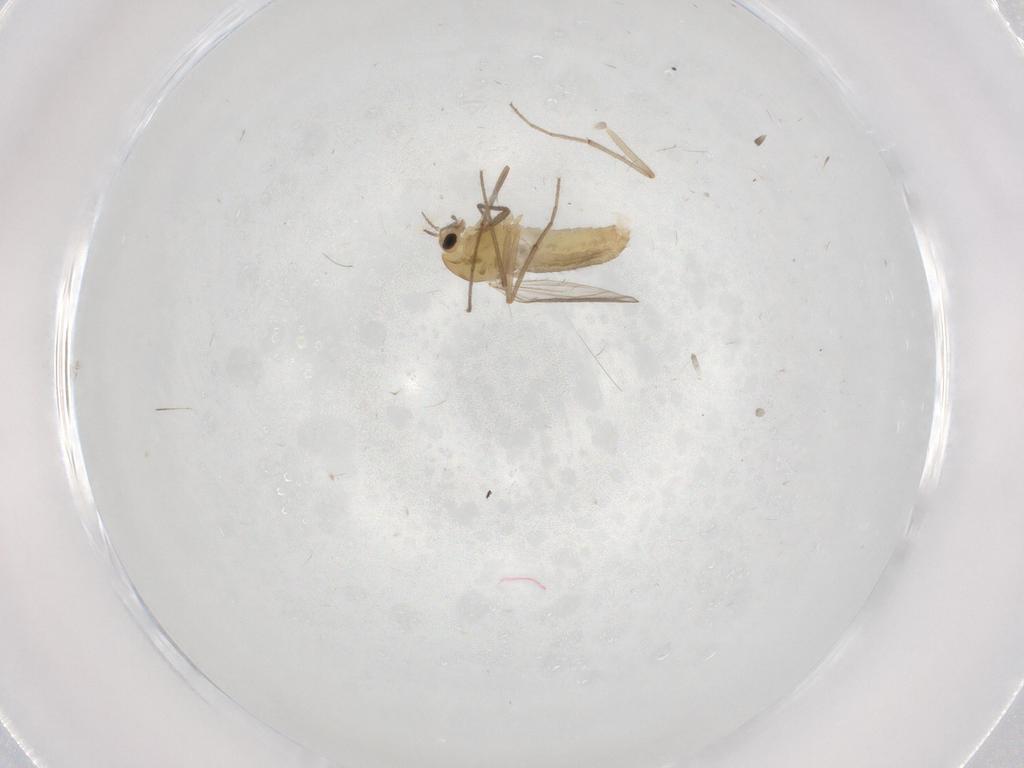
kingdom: Animalia
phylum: Arthropoda
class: Insecta
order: Diptera
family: Chironomidae
